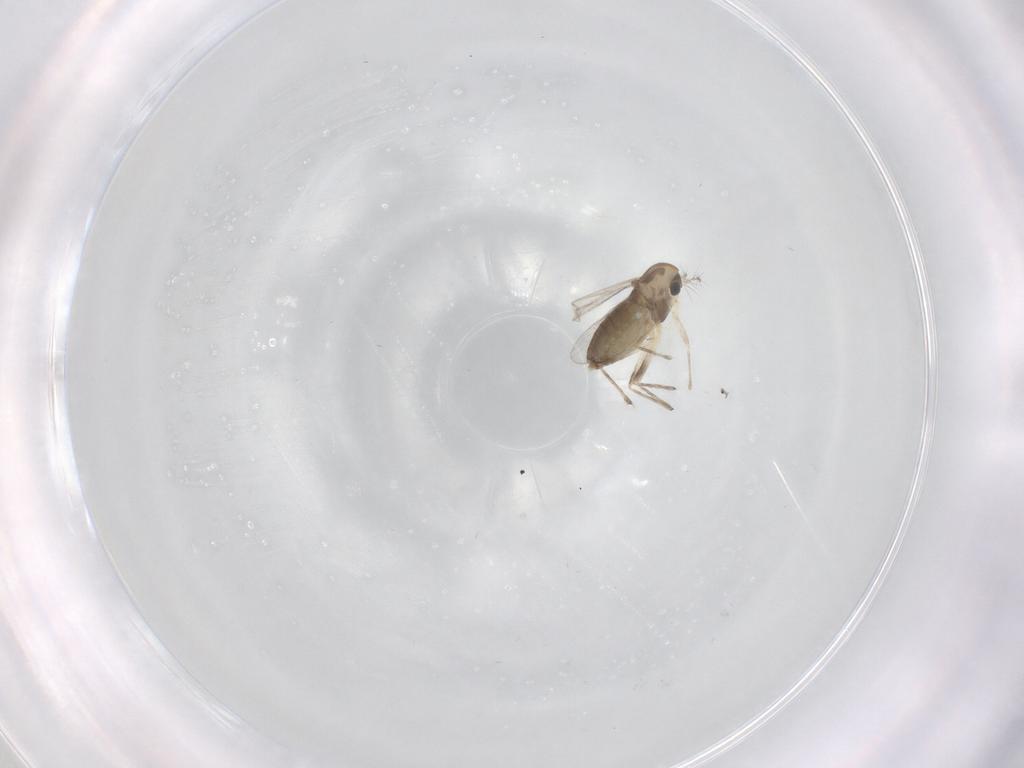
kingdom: Animalia
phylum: Arthropoda
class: Insecta
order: Diptera
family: Chironomidae
